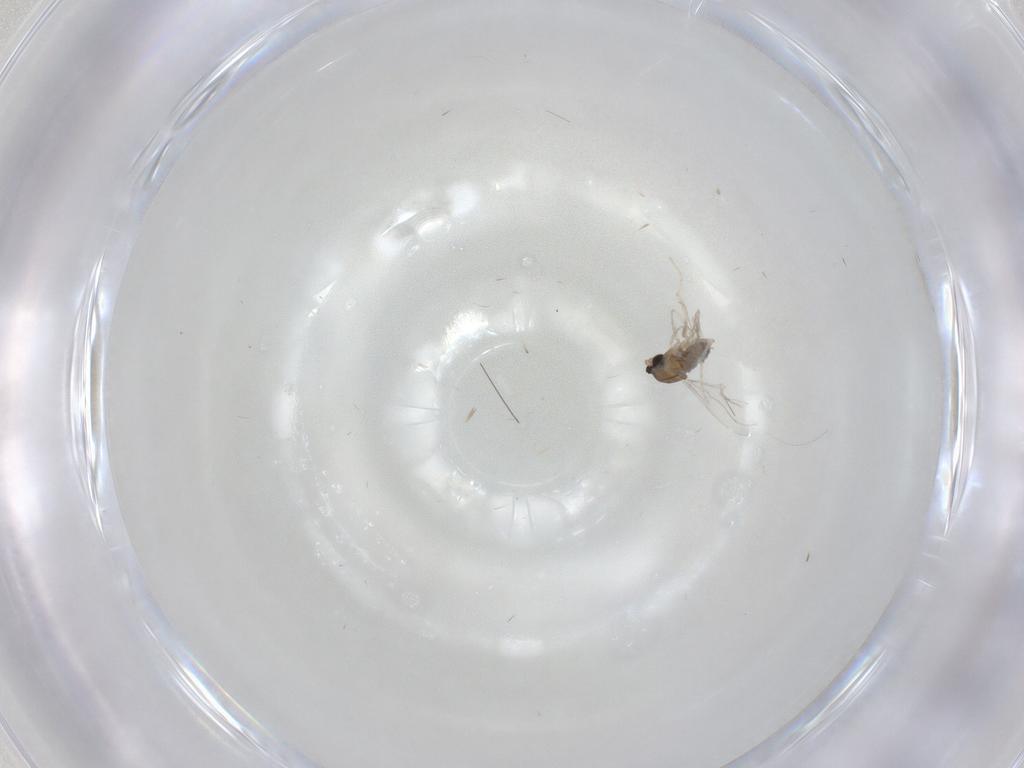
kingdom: Animalia
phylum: Arthropoda
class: Insecta
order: Diptera
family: Cecidomyiidae
